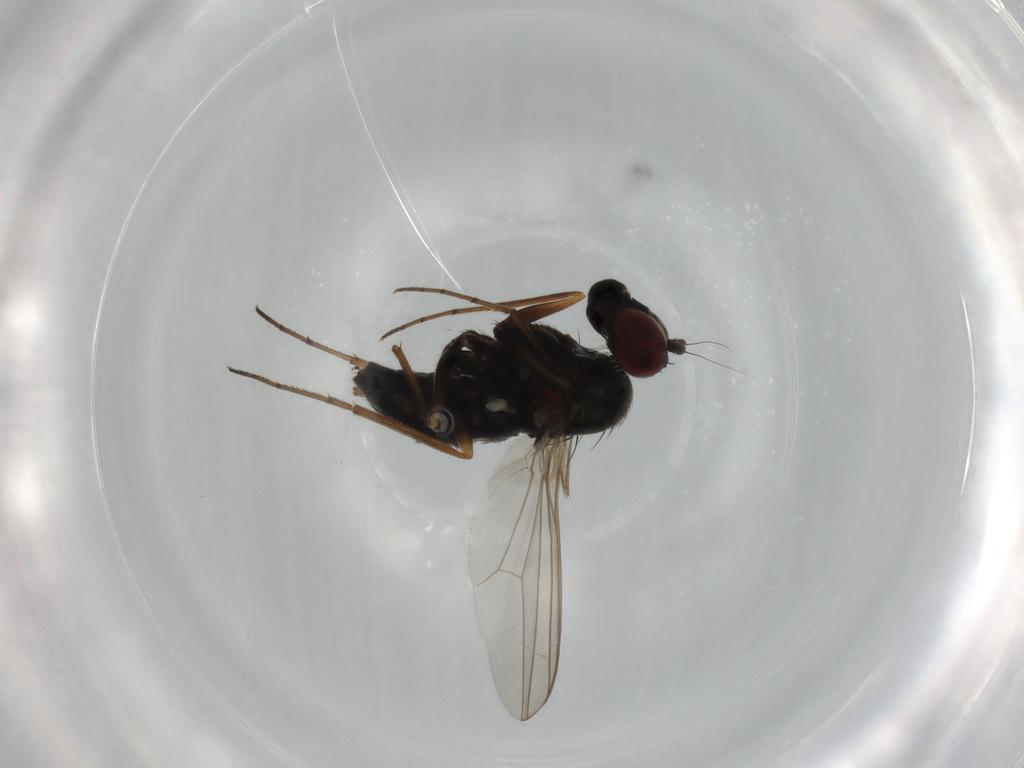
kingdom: Animalia
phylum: Arthropoda
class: Insecta
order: Diptera
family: Dolichopodidae
